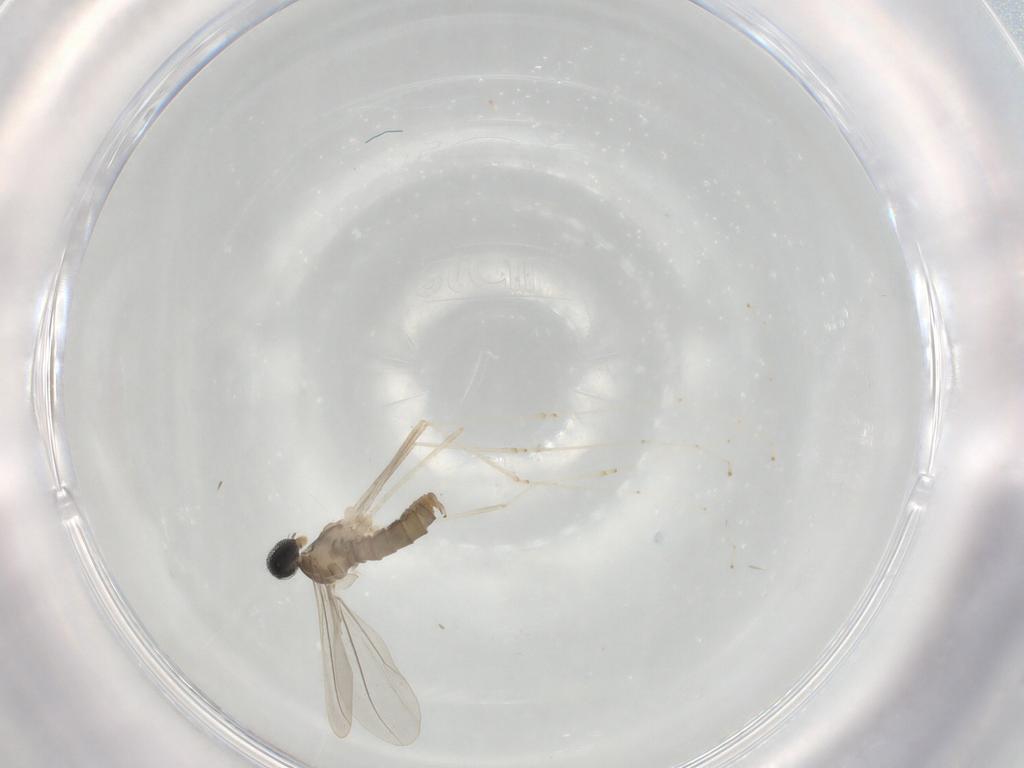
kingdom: Animalia
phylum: Arthropoda
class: Insecta
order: Diptera
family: Cecidomyiidae
